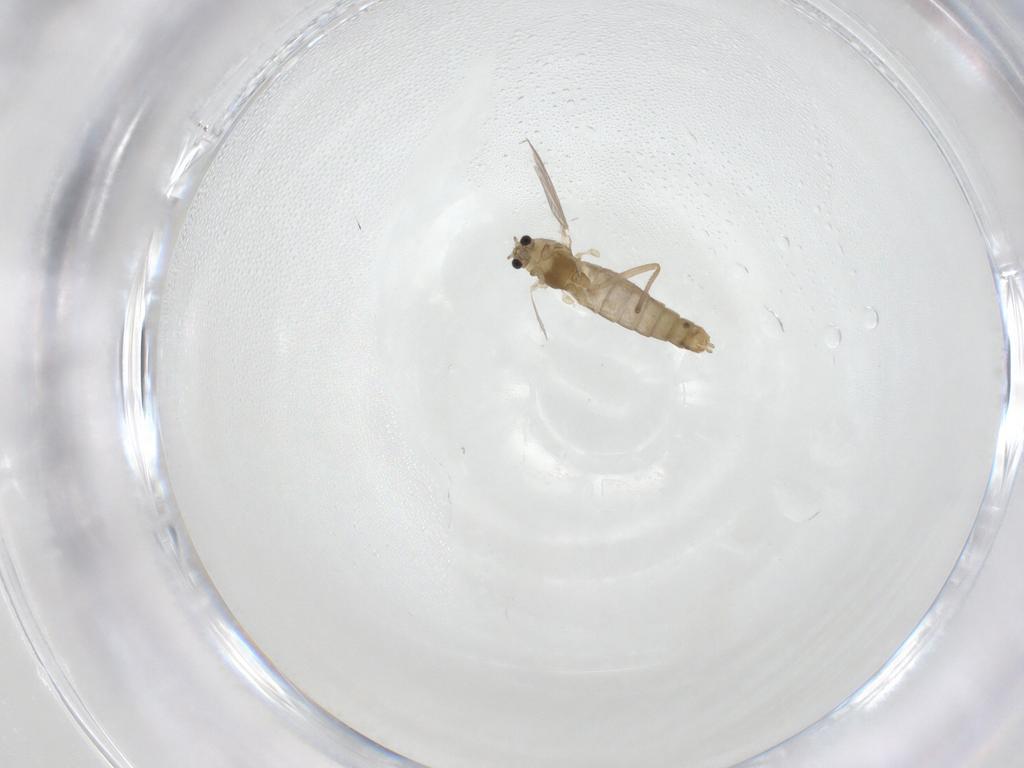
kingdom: Animalia
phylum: Arthropoda
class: Insecta
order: Diptera
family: Chironomidae
